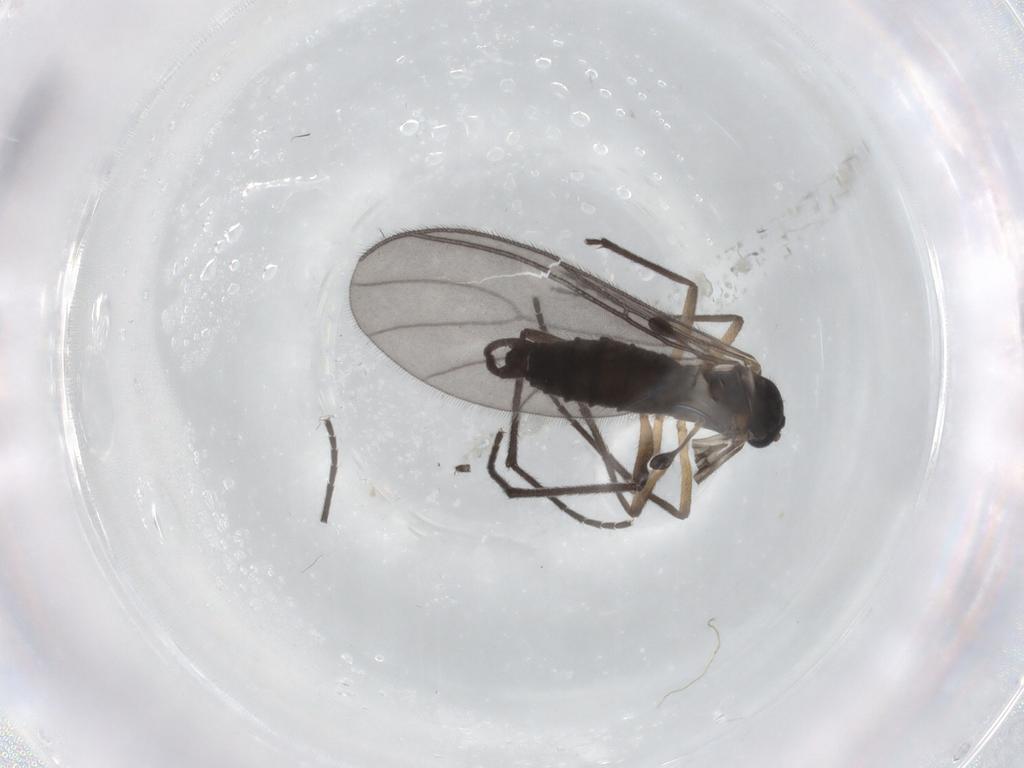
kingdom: Animalia
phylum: Arthropoda
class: Insecta
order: Diptera
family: Sciaridae
